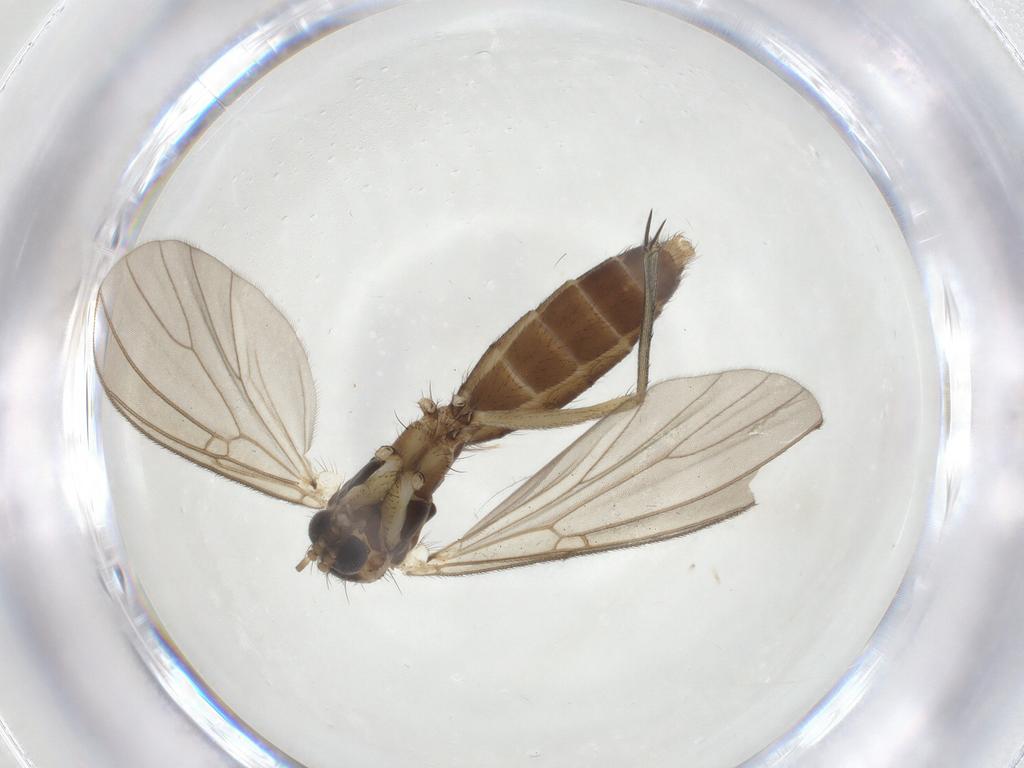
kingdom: Animalia
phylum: Arthropoda
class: Insecta
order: Diptera
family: Mycetophilidae
